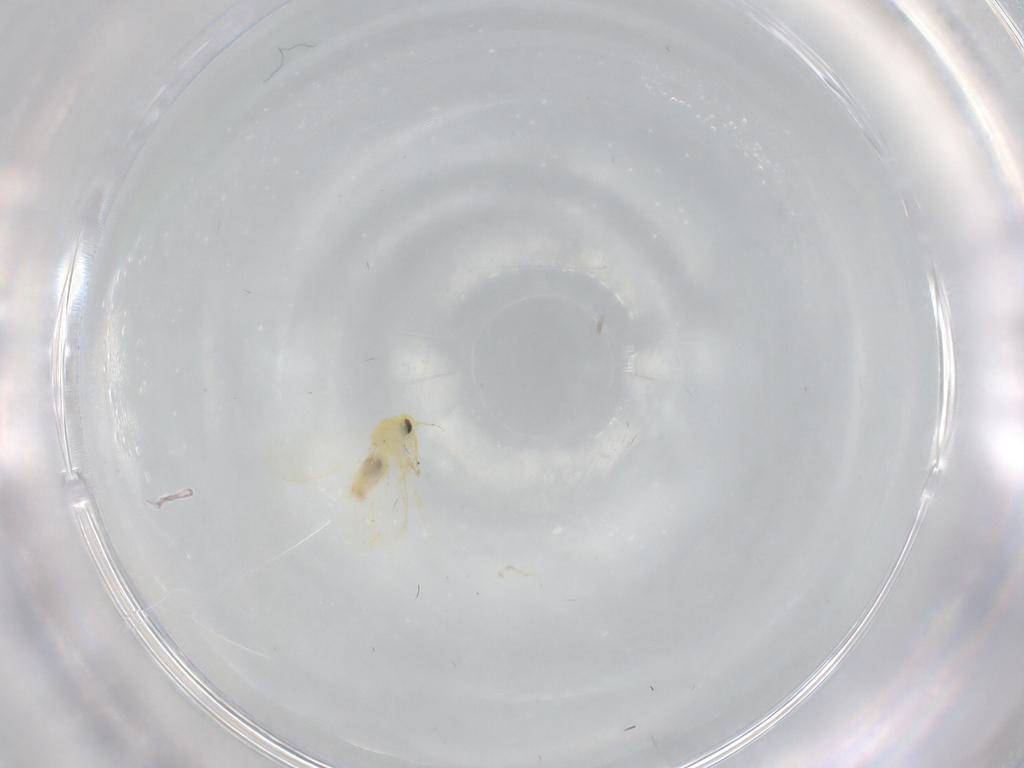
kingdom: Animalia
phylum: Arthropoda
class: Insecta
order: Hemiptera
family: Aleyrodidae
